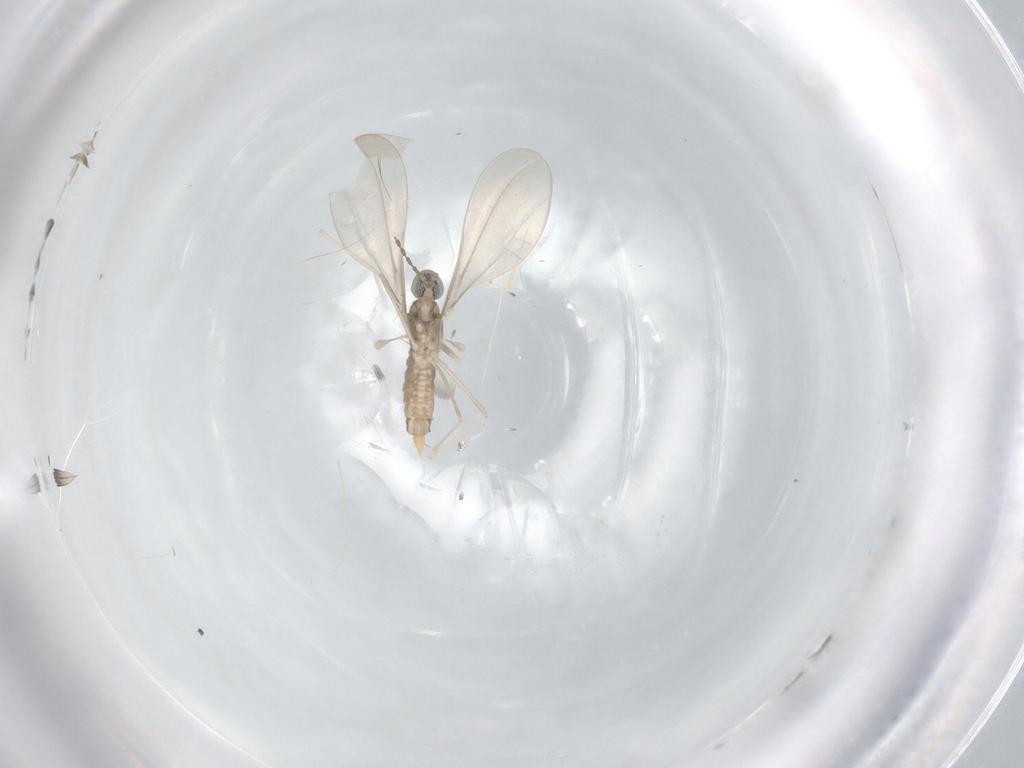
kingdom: Animalia
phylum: Arthropoda
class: Insecta
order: Diptera
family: Cecidomyiidae
